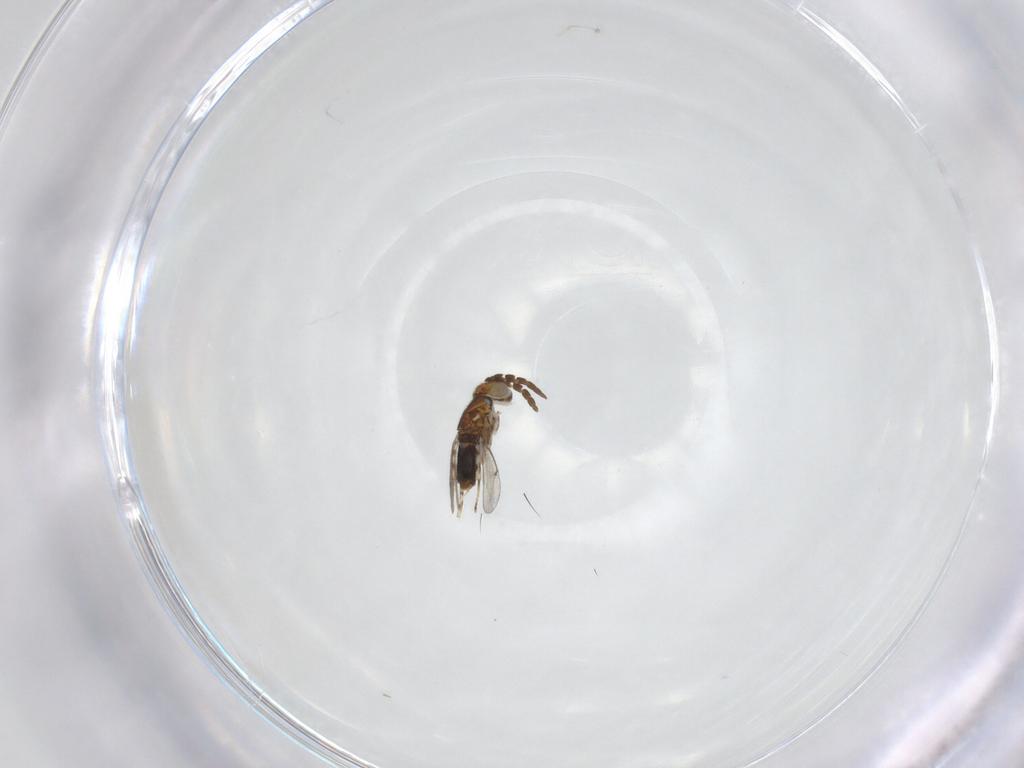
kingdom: Animalia
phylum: Arthropoda
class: Insecta
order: Hymenoptera
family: Aphelinidae
